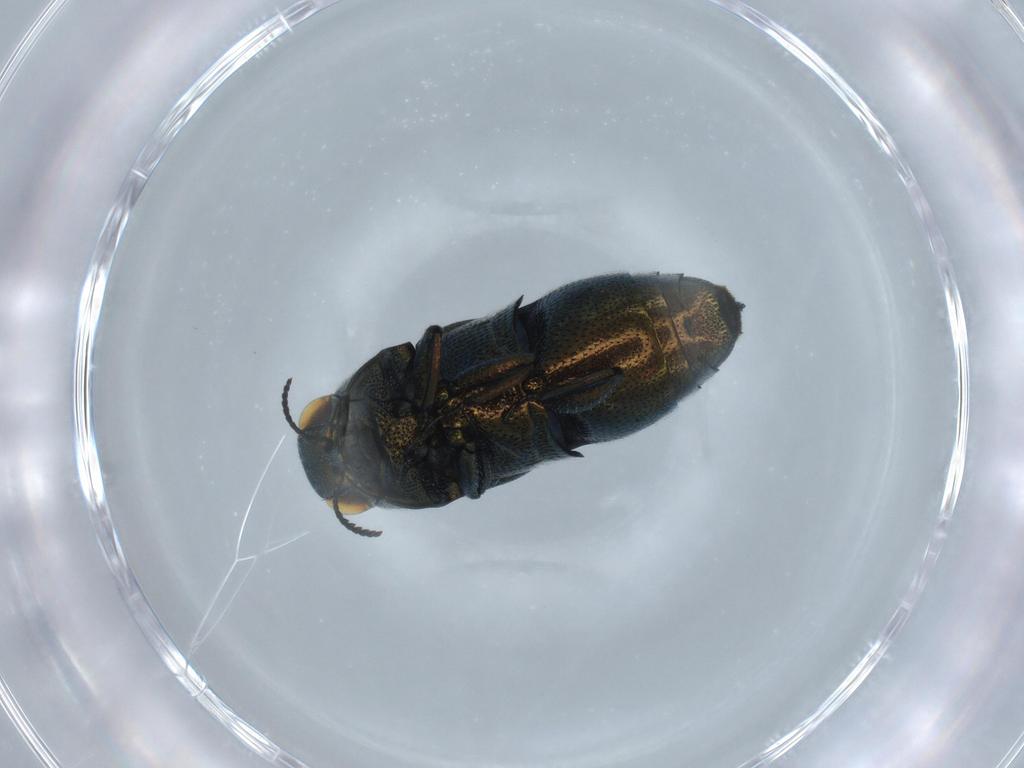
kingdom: Animalia
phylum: Arthropoda
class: Insecta
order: Coleoptera
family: Buprestidae
